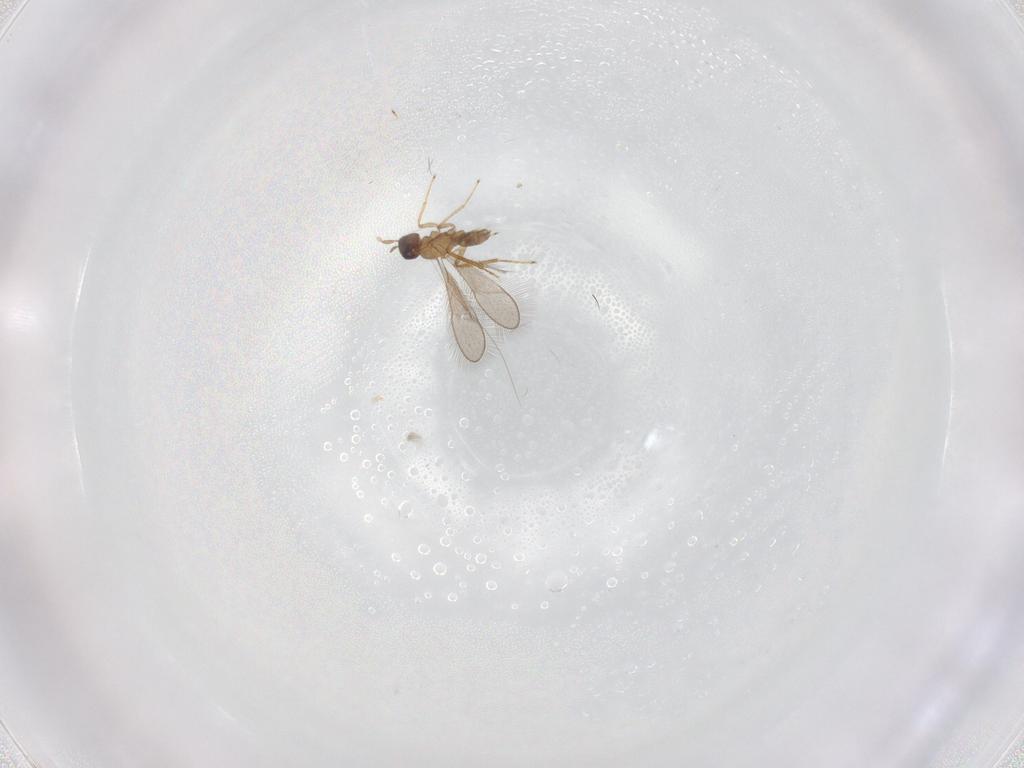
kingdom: Animalia
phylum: Arthropoda
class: Insecta
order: Hymenoptera
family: Mymaridae
